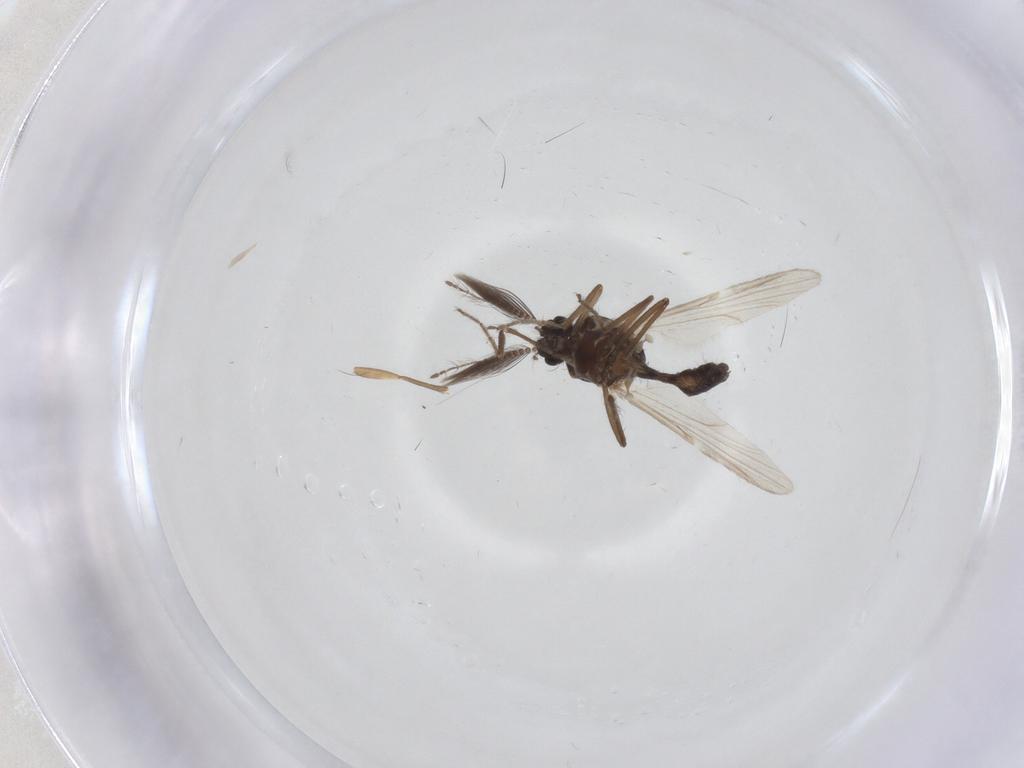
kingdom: Animalia
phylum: Arthropoda
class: Insecta
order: Diptera
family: Ceratopogonidae
